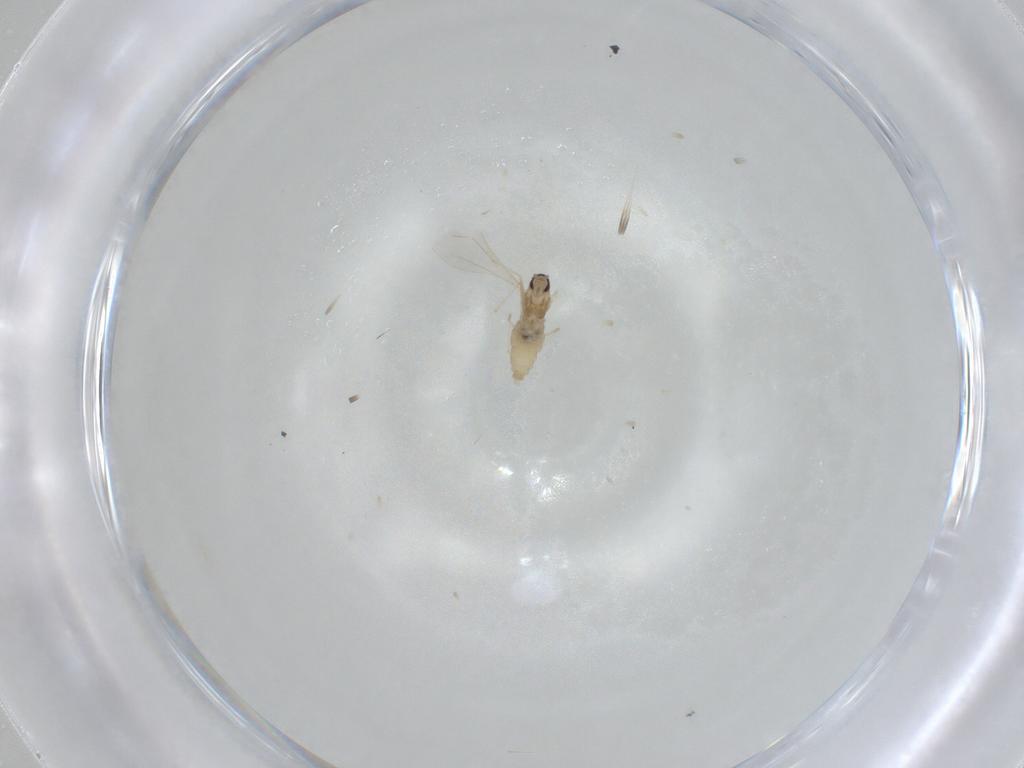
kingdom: Animalia
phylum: Arthropoda
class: Insecta
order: Diptera
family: Cecidomyiidae
